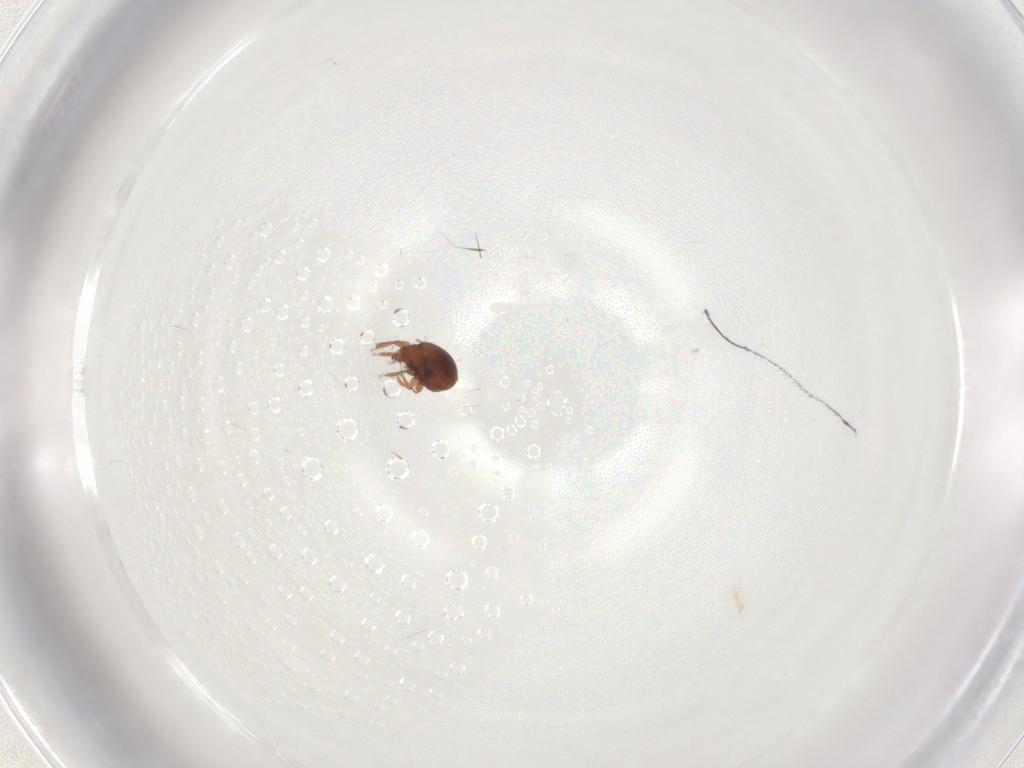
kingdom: Animalia
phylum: Arthropoda
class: Arachnida
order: Sarcoptiformes
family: Humerobatidae
